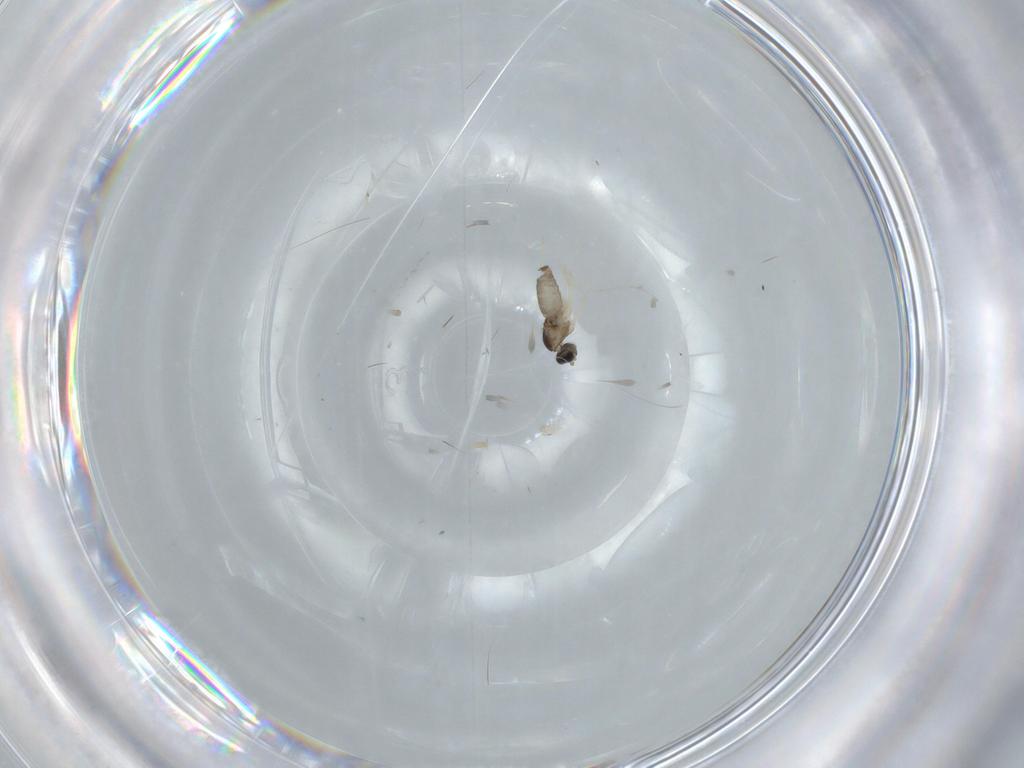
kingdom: Animalia
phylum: Arthropoda
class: Insecta
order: Diptera
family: Cecidomyiidae
